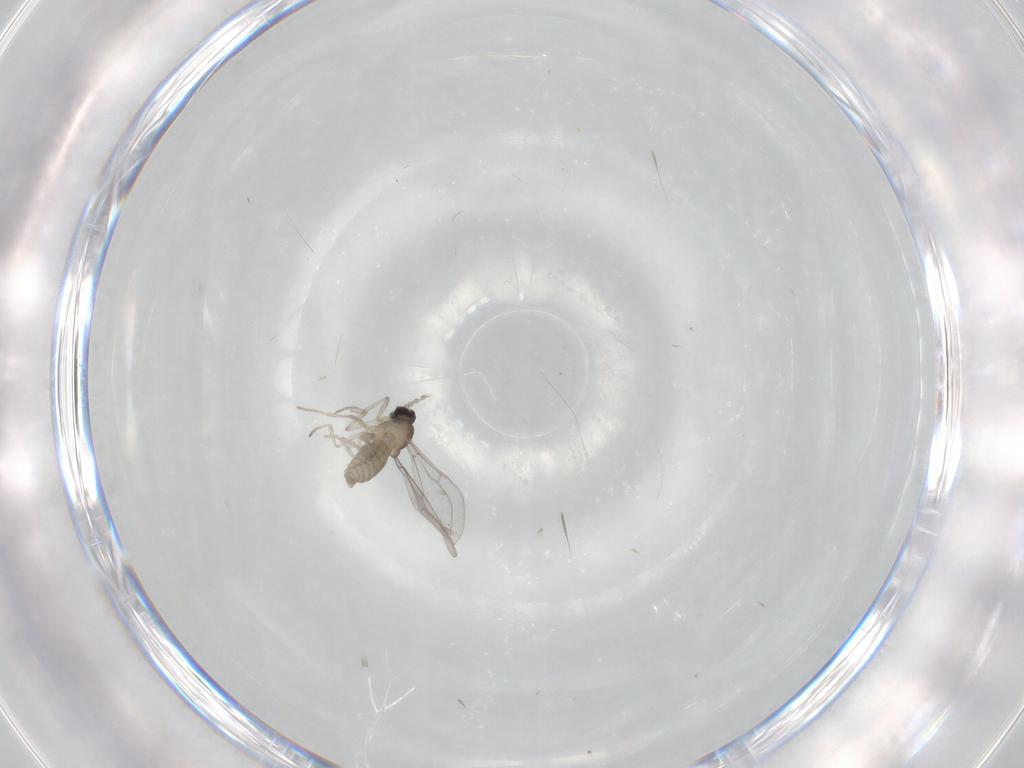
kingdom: Animalia
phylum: Arthropoda
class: Insecta
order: Diptera
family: Cecidomyiidae
